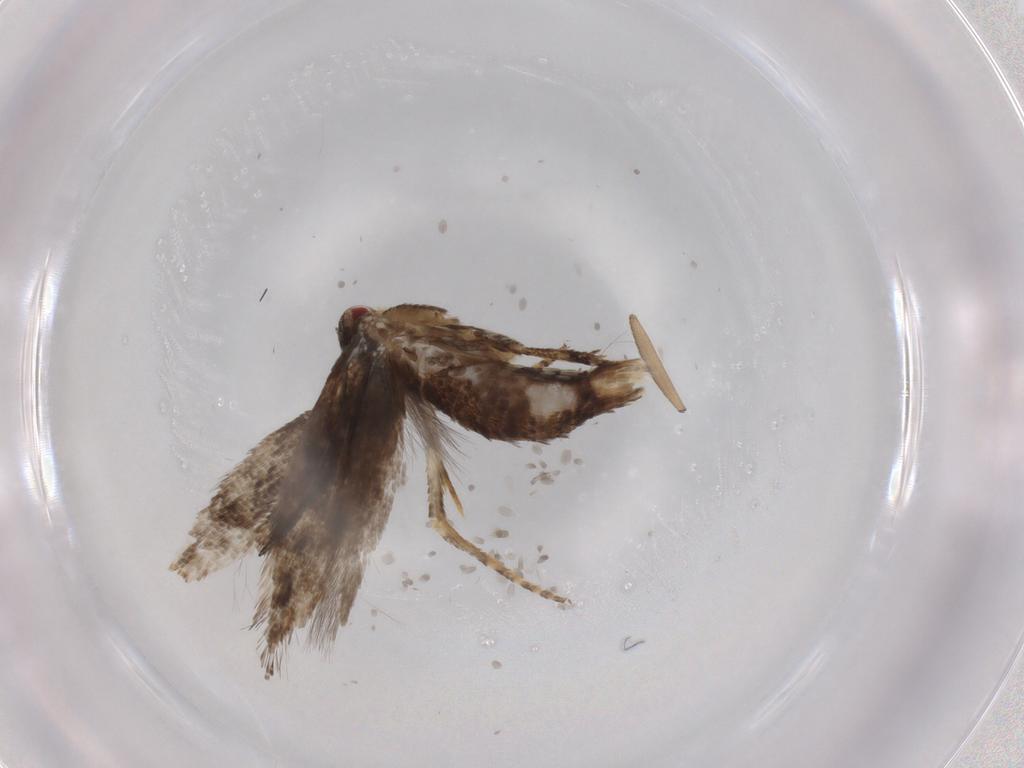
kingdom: Animalia
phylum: Arthropoda
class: Insecta
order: Lepidoptera
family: Momphidae
